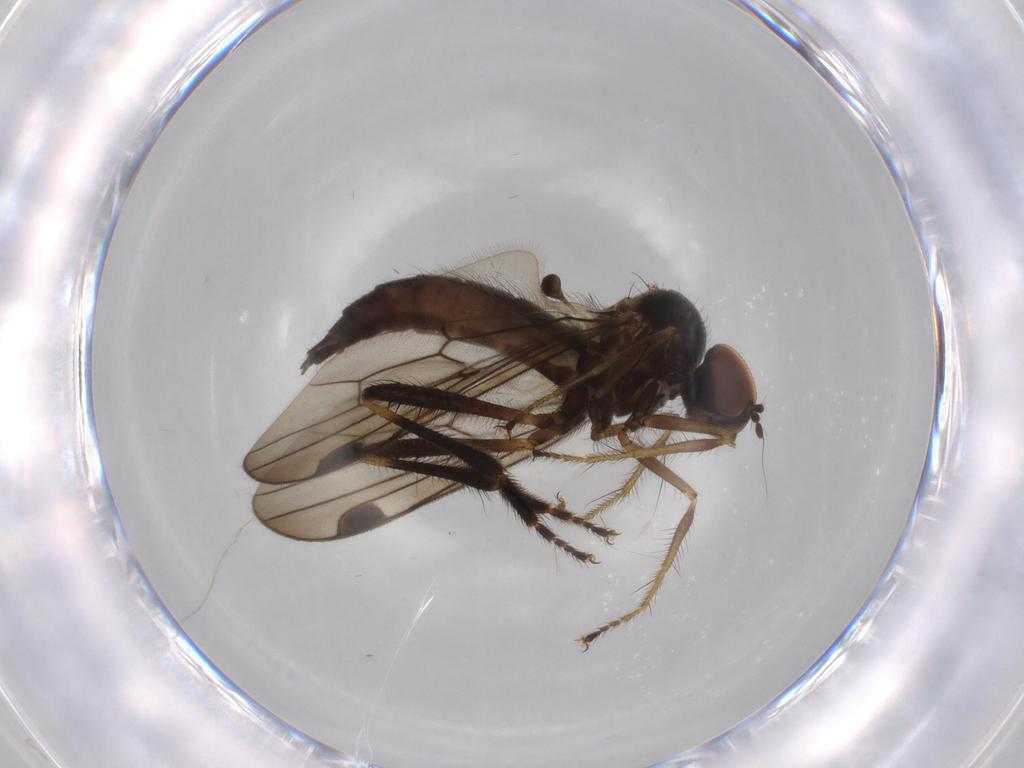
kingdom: Animalia
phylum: Arthropoda
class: Insecta
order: Diptera
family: Hybotidae
